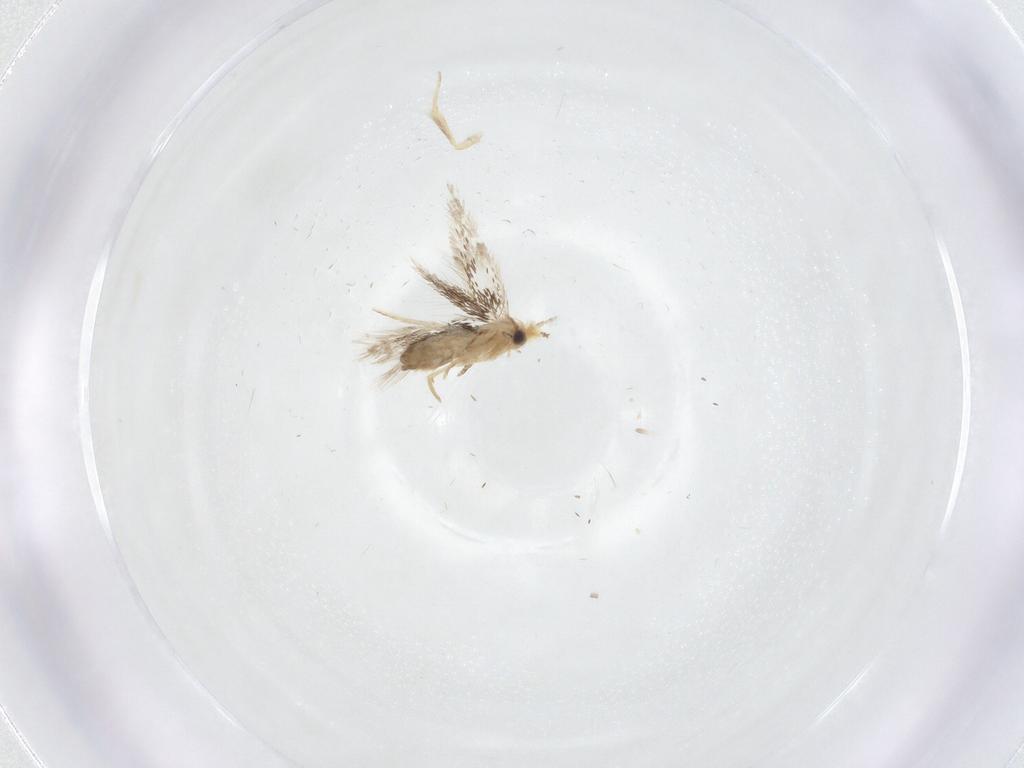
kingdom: Animalia
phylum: Arthropoda
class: Insecta
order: Lepidoptera
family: Nepticulidae
